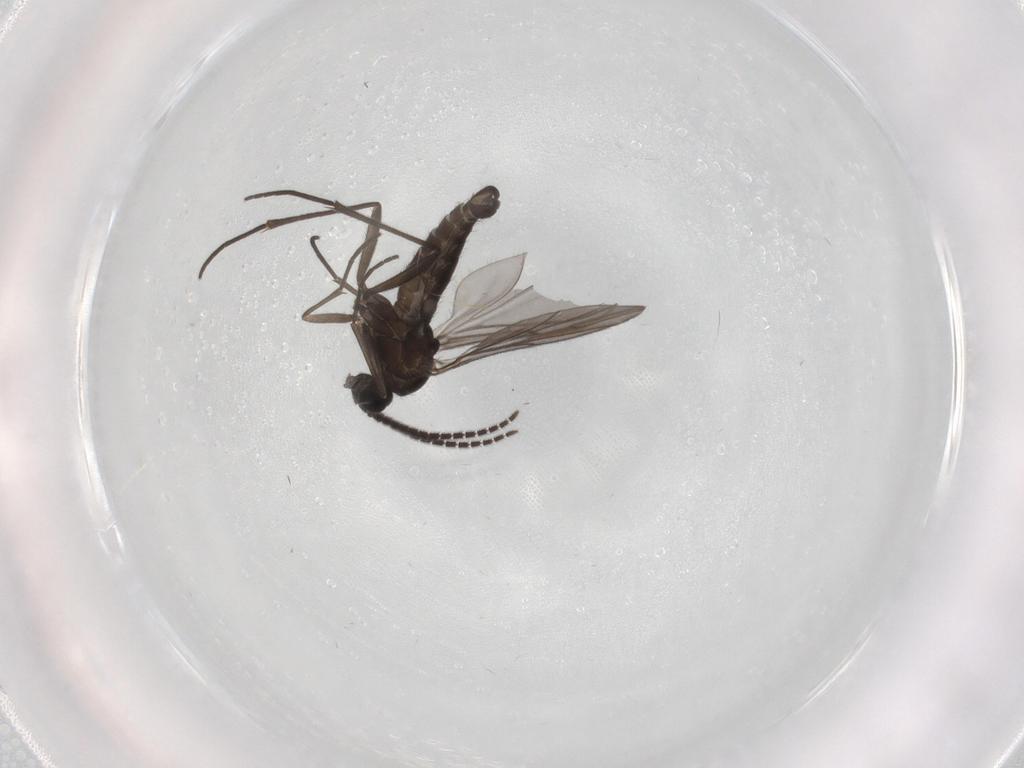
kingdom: Animalia
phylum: Arthropoda
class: Insecta
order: Diptera
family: Sciaridae
